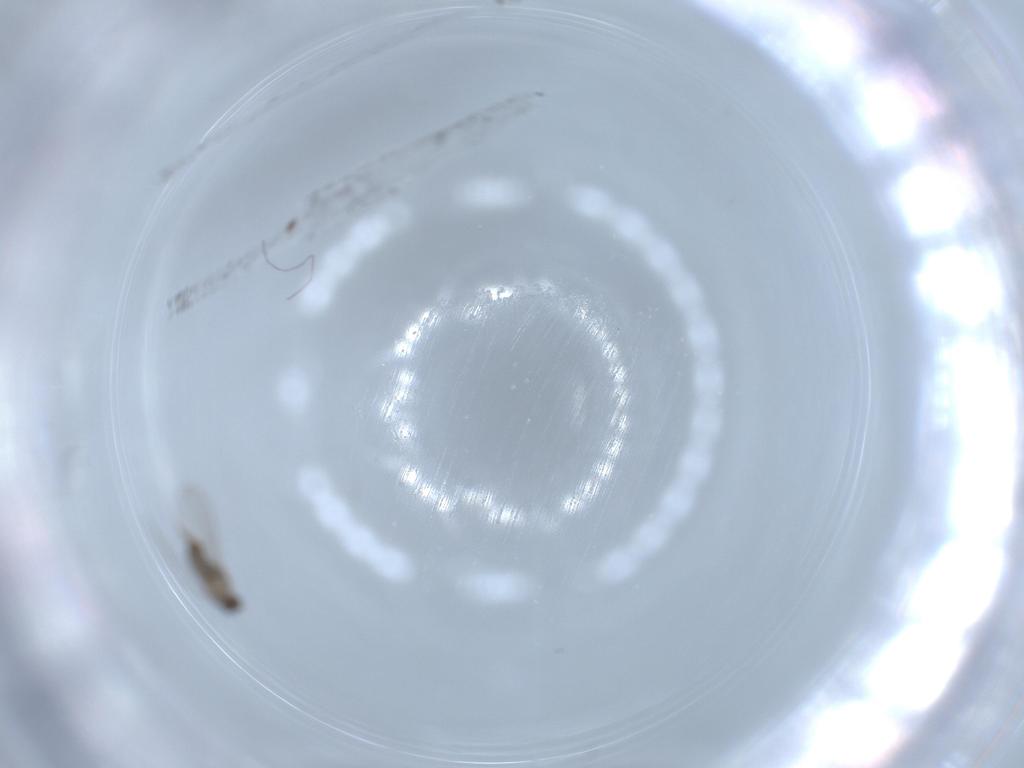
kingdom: Animalia
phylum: Arthropoda
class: Insecta
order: Diptera
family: Cecidomyiidae
